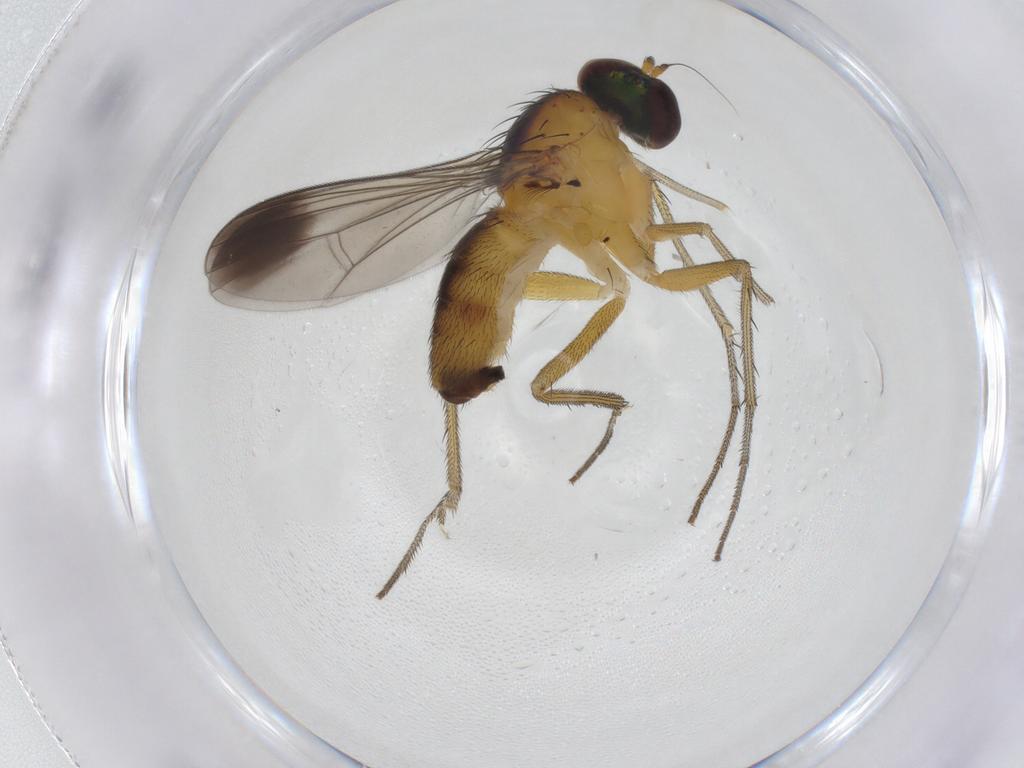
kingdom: Animalia
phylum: Arthropoda
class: Insecta
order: Diptera
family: Dolichopodidae
